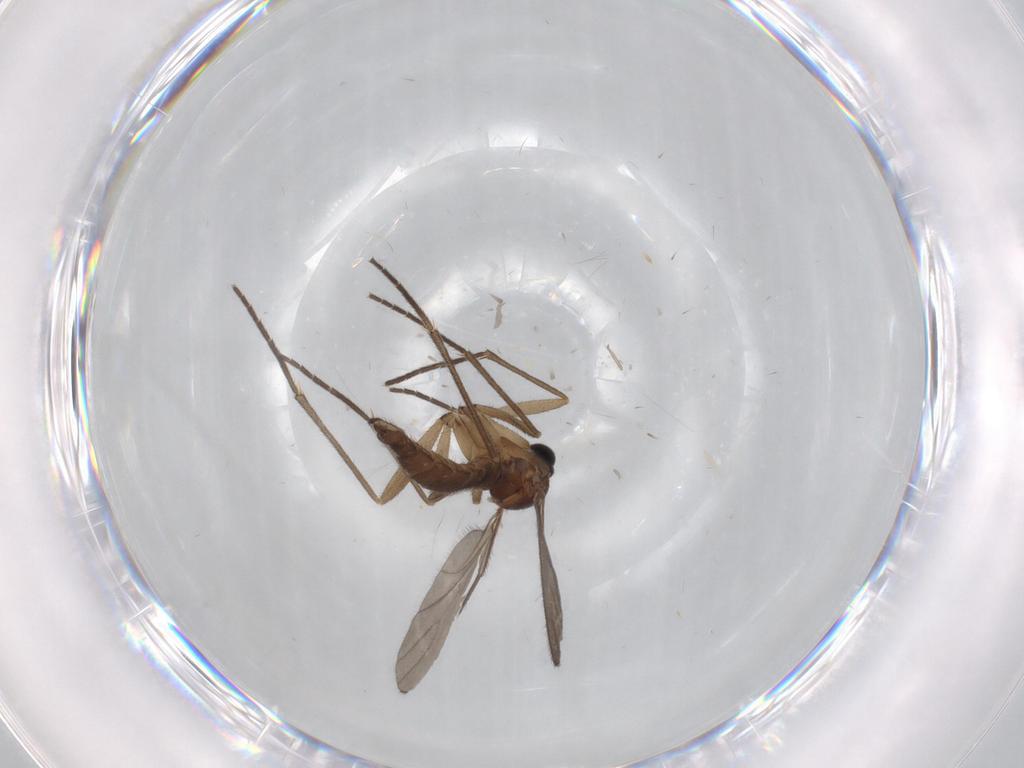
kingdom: Animalia
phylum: Arthropoda
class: Insecta
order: Diptera
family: Ceratopogonidae
